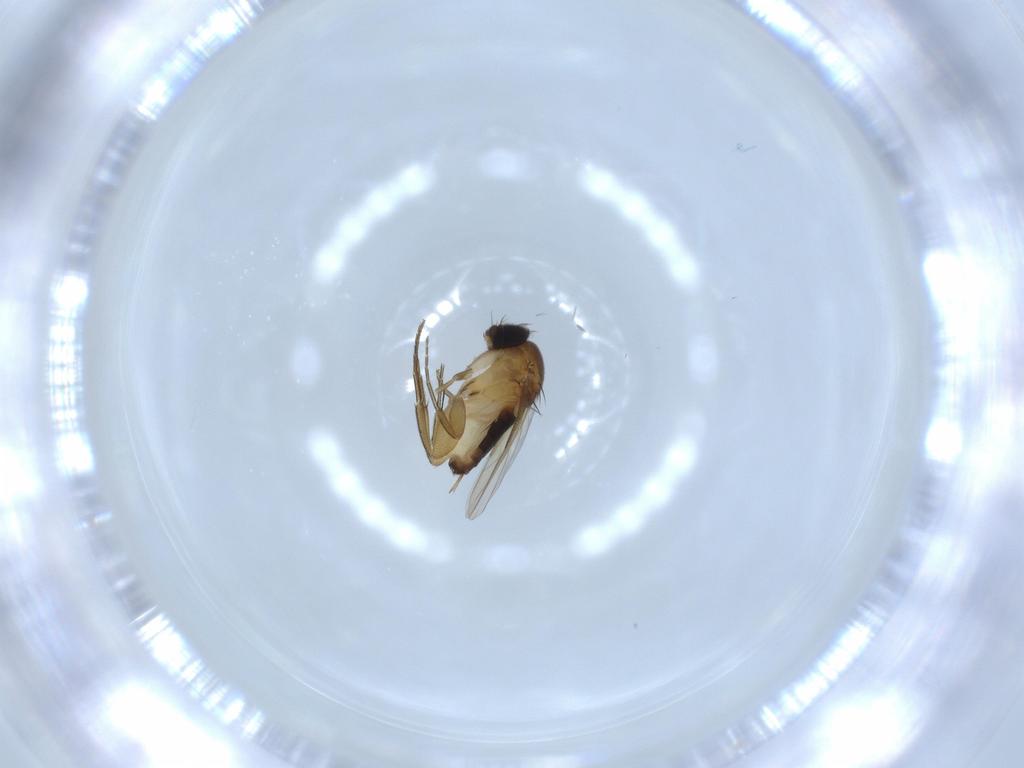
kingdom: Animalia
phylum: Arthropoda
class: Insecta
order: Diptera
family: Phoridae
